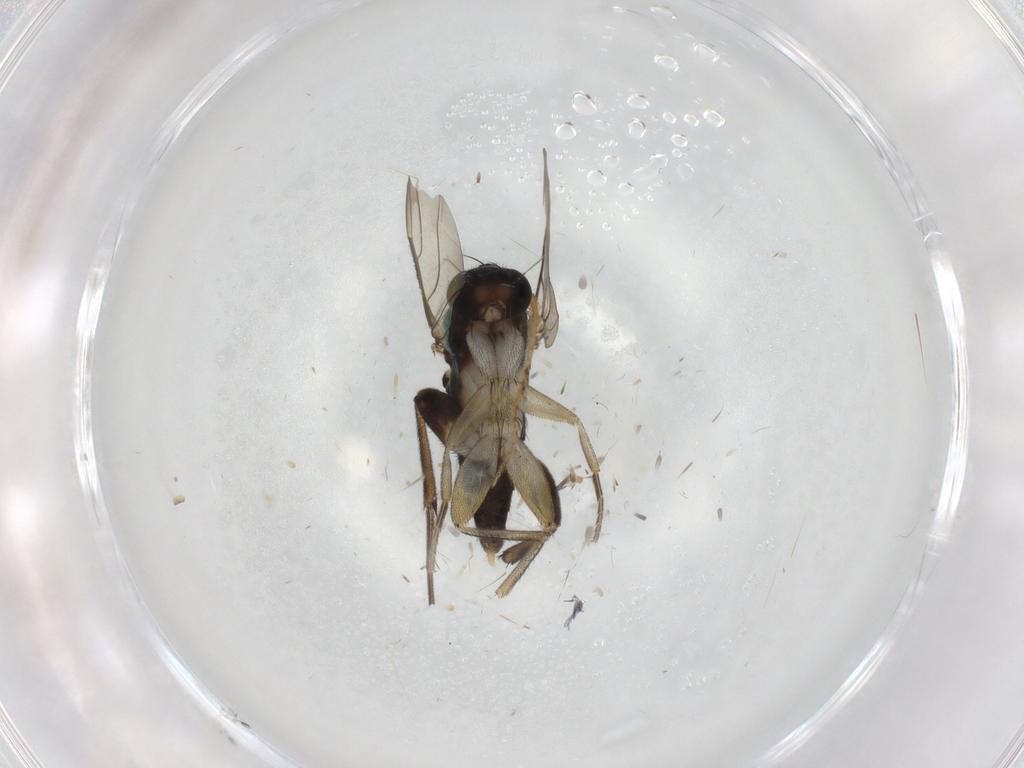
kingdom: Animalia
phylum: Arthropoda
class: Insecta
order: Diptera
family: Phoridae
